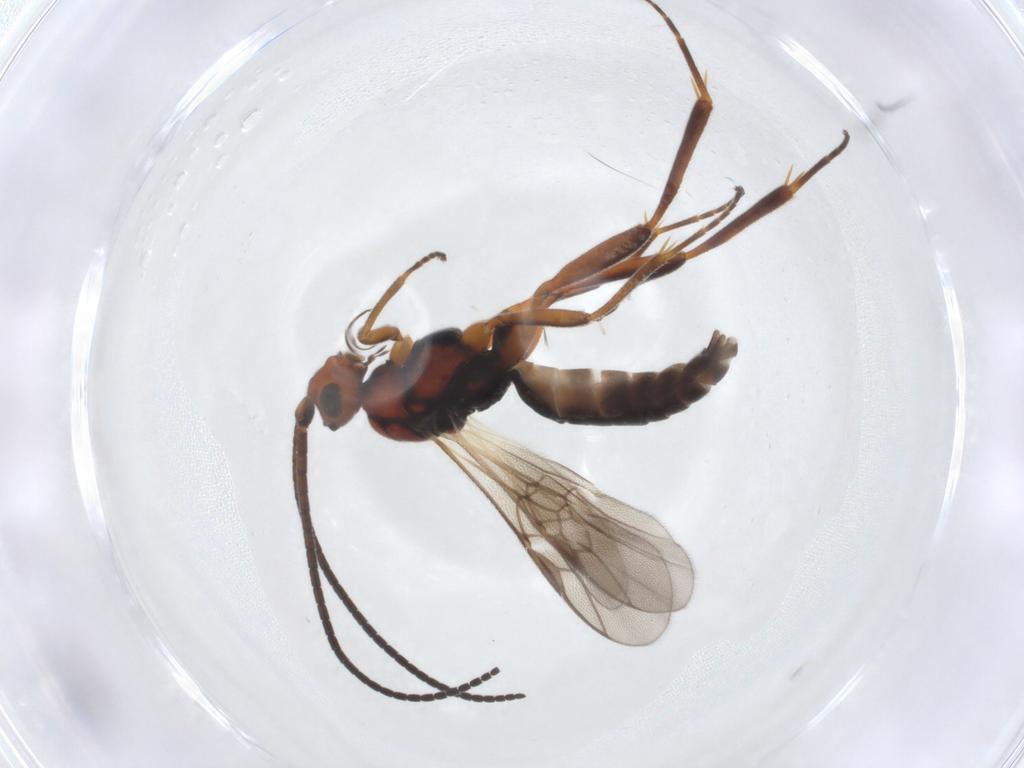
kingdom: Animalia
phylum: Arthropoda
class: Insecta
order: Hymenoptera
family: Braconidae
